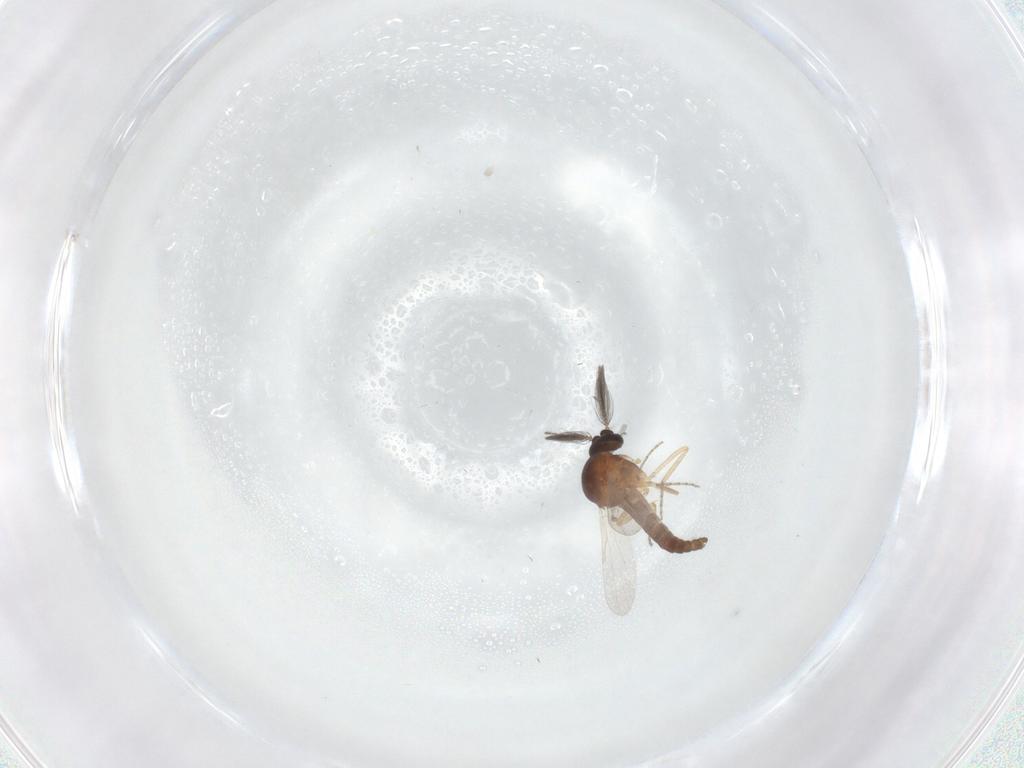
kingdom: Animalia
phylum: Arthropoda
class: Insecta
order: Diptera
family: Ceratopogonidae
